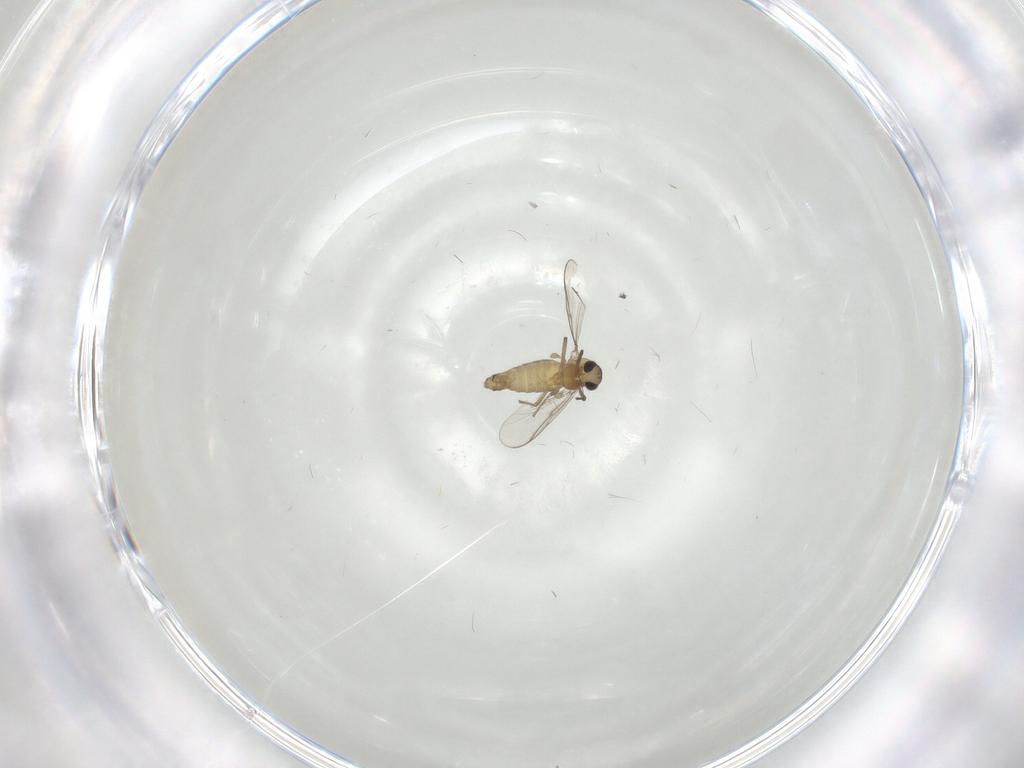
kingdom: Animalia
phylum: Arthropoda
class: Insecta
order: Diptera
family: Chironomidae
